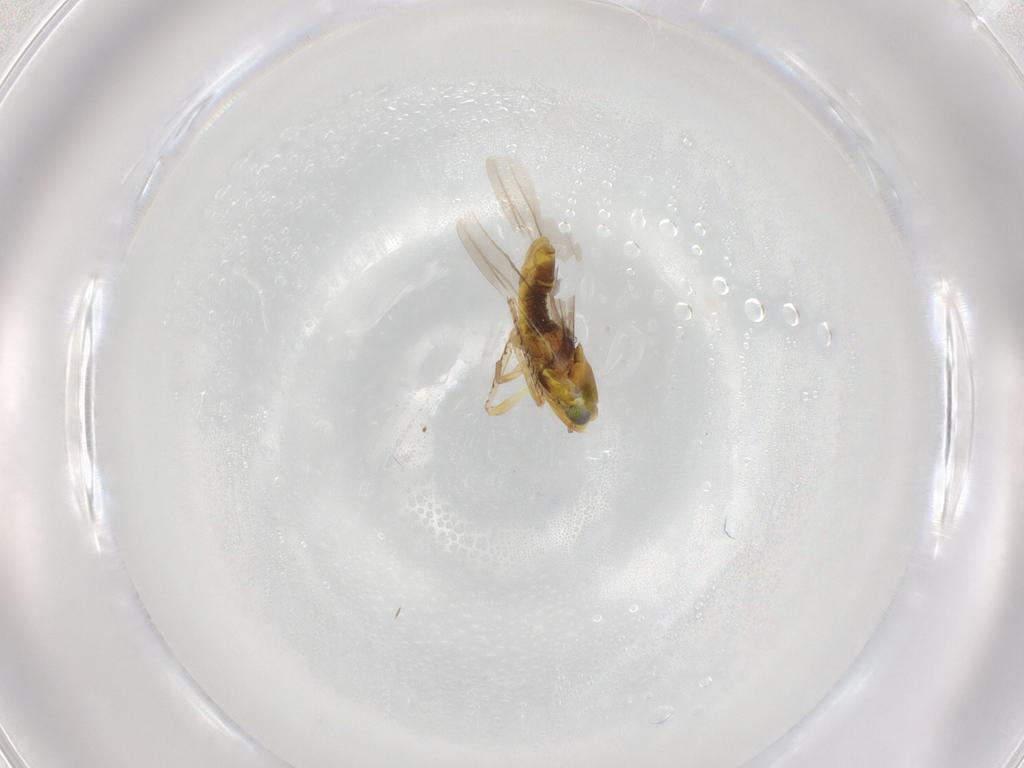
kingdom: Animalia
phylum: Arthropoda
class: Insecta
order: Hemiptera
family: Cicadellidae
